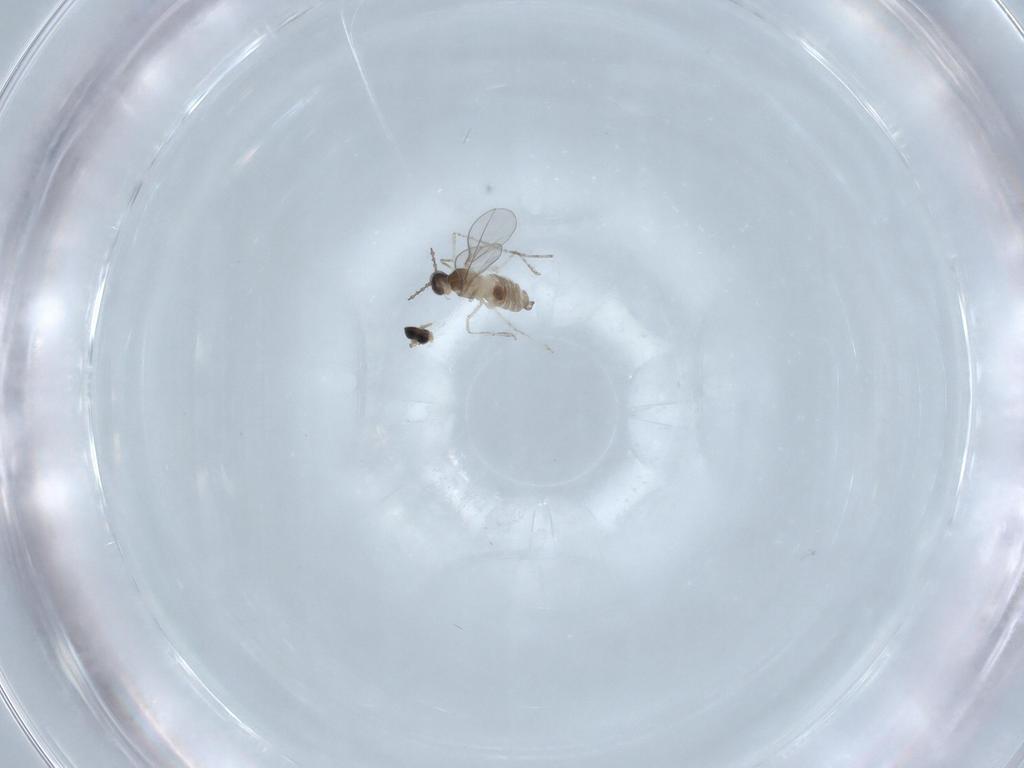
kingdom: Animalia
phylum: Arthropoda
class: Insecta
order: Diptera
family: Cecidomyiidae
